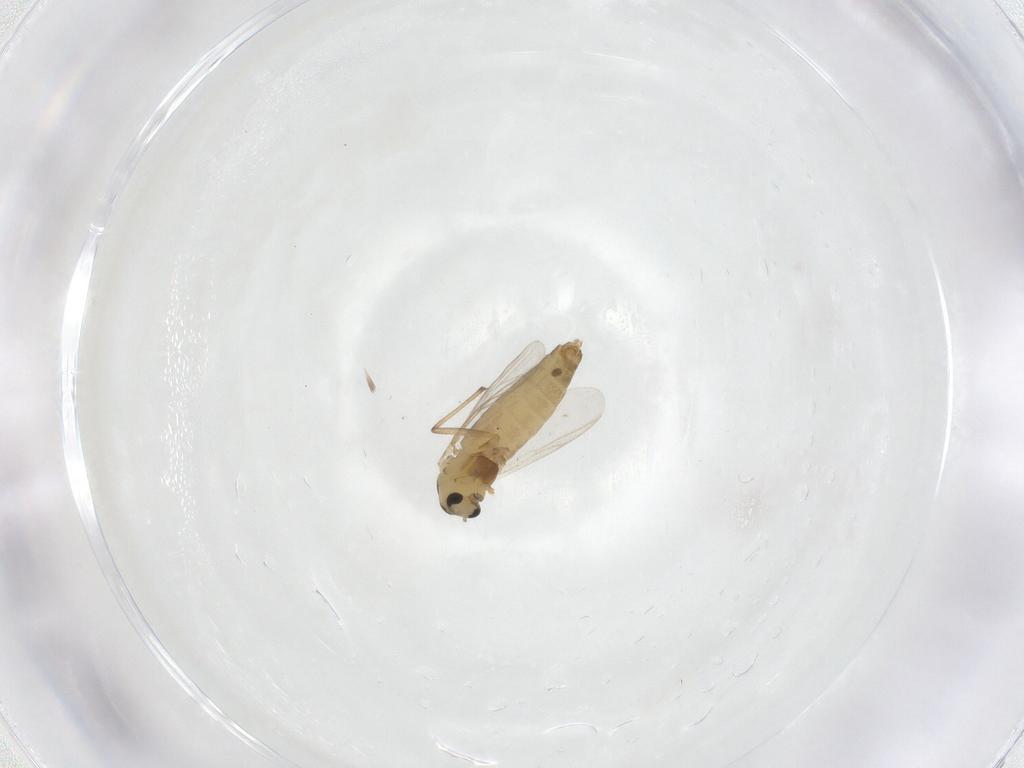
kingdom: Animalia
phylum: Arthropoda
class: Insecta
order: Diptera
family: Chironomidae
